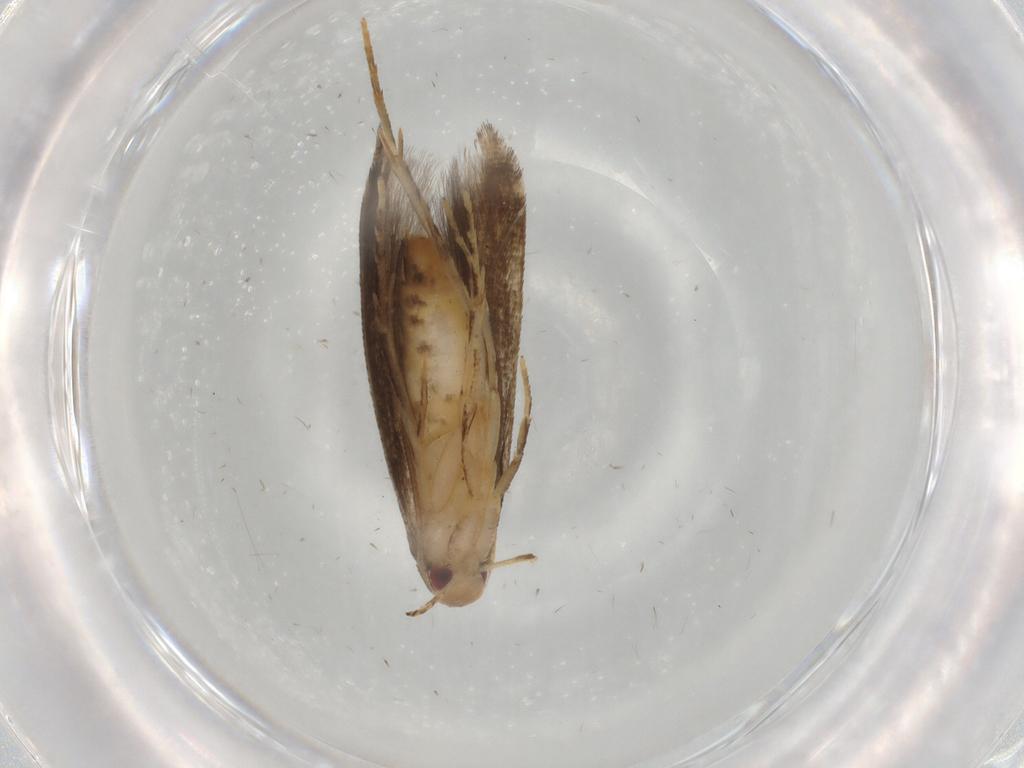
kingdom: Animalia
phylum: Arthropoda
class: Insecta
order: Lepidoptera
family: Momphidae
